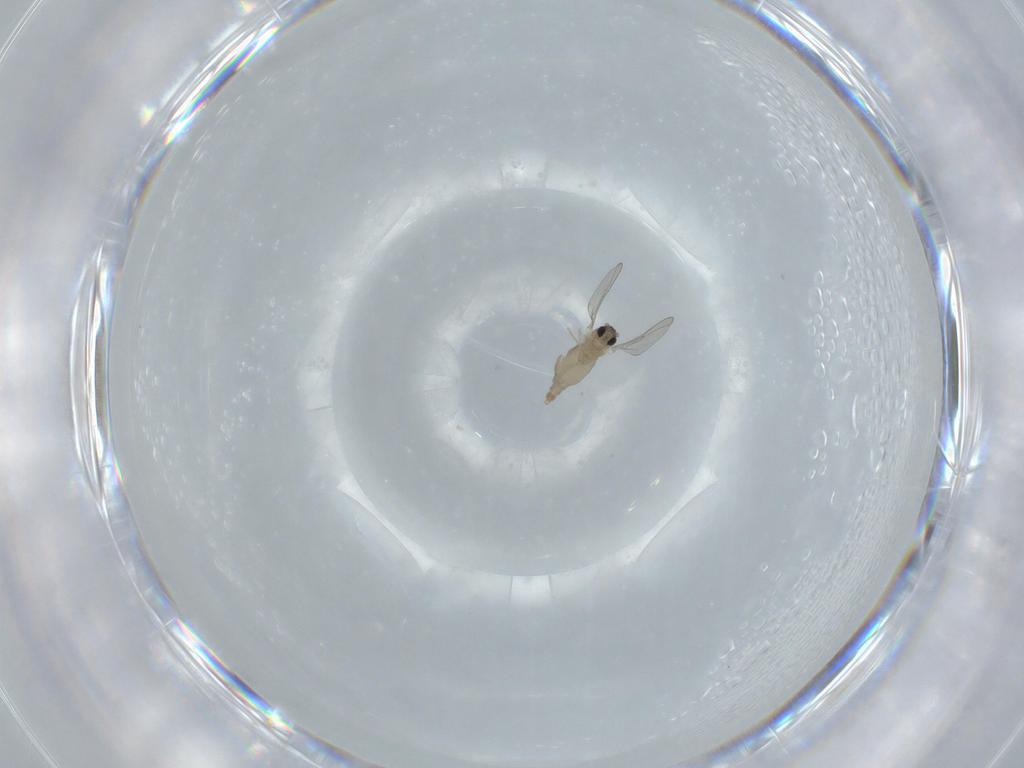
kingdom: Animalia
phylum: Arthropoda
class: Insecta
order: Diptera
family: Cecidomyiidae
